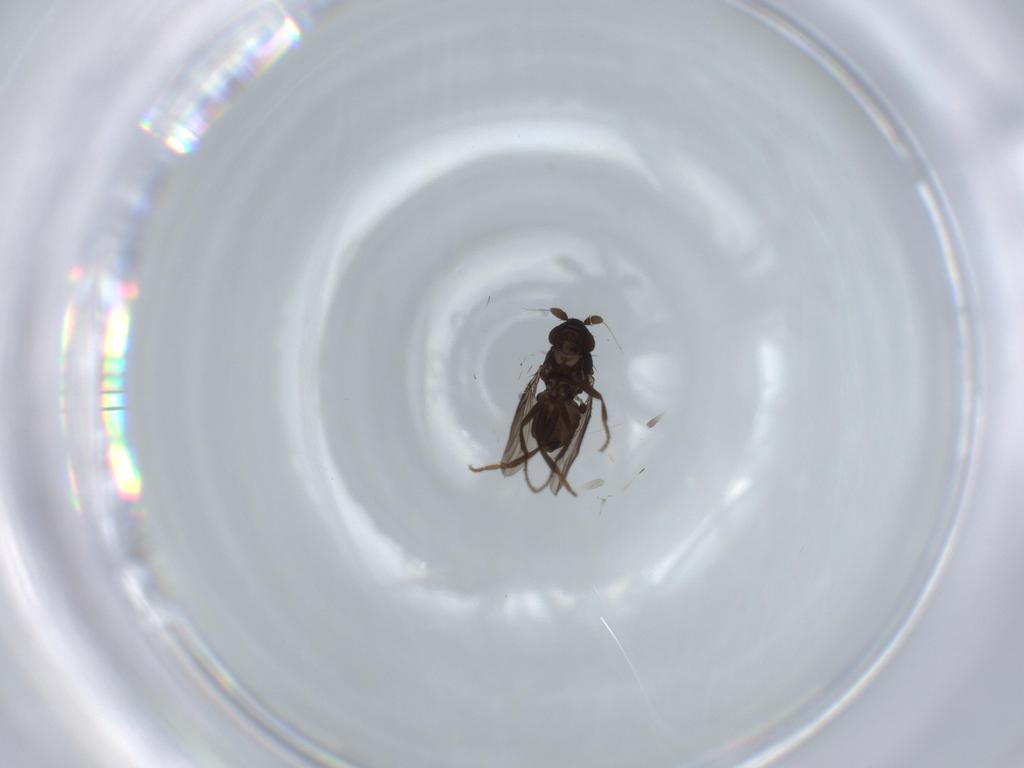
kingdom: Animalia
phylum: Arthropoda
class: Insecta
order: Diptera
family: Sphaeroceridae
